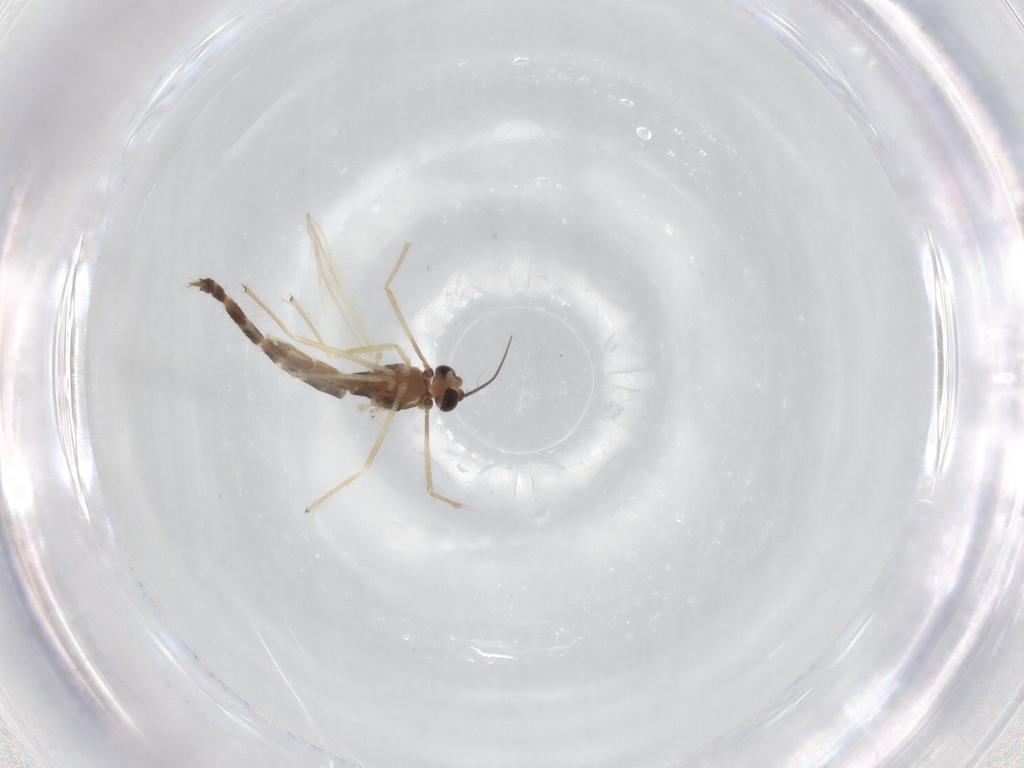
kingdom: Animalia
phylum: Arthropoda
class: Insecta
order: Diptera
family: Chironomidae
